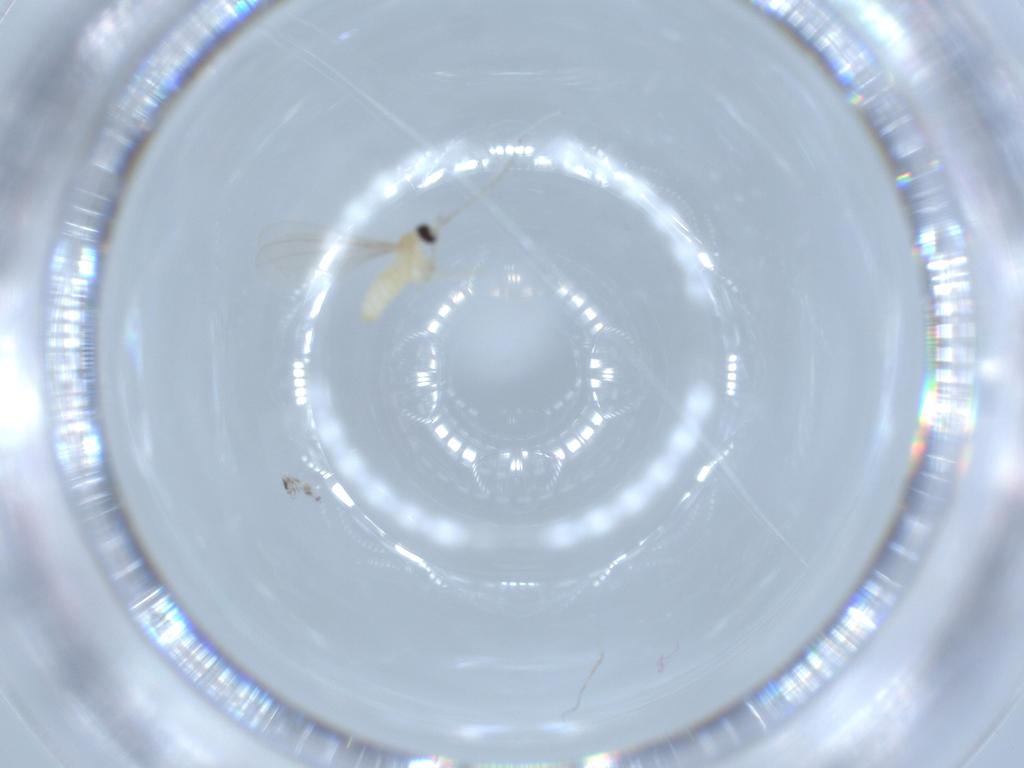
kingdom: Animalia
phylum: Arthropoda
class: Insecta
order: Diptera
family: Cecidomyiidae
